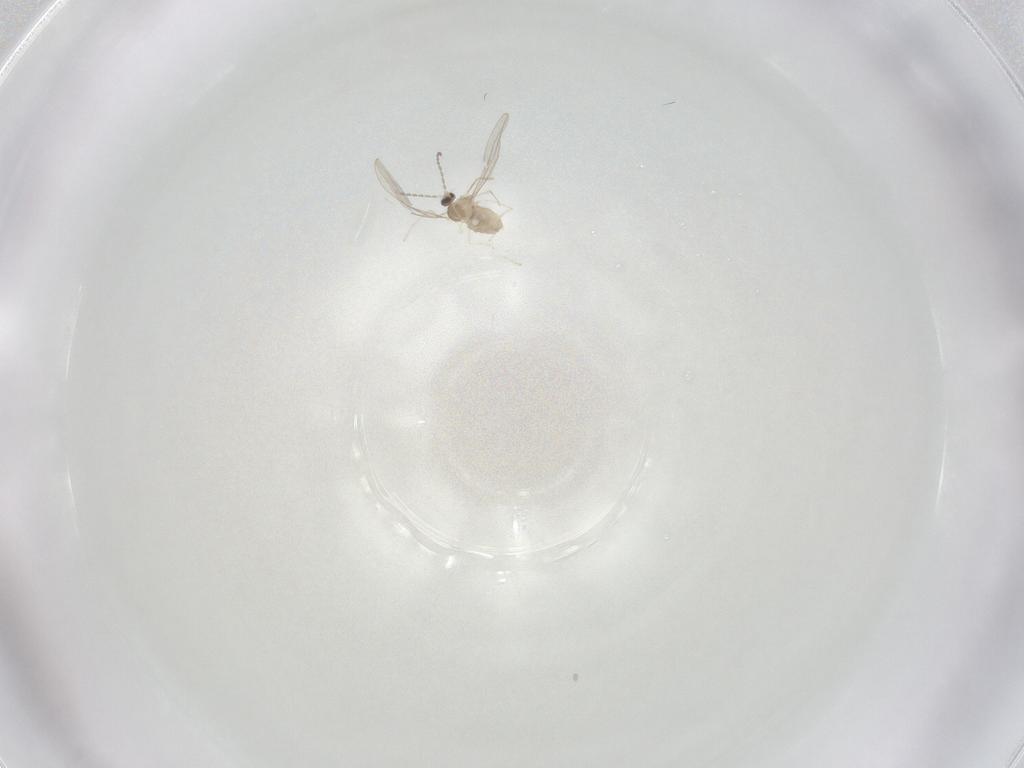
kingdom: Animalia
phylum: Arthropoda
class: Insecta
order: Diptera
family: Cecidomyiidae
